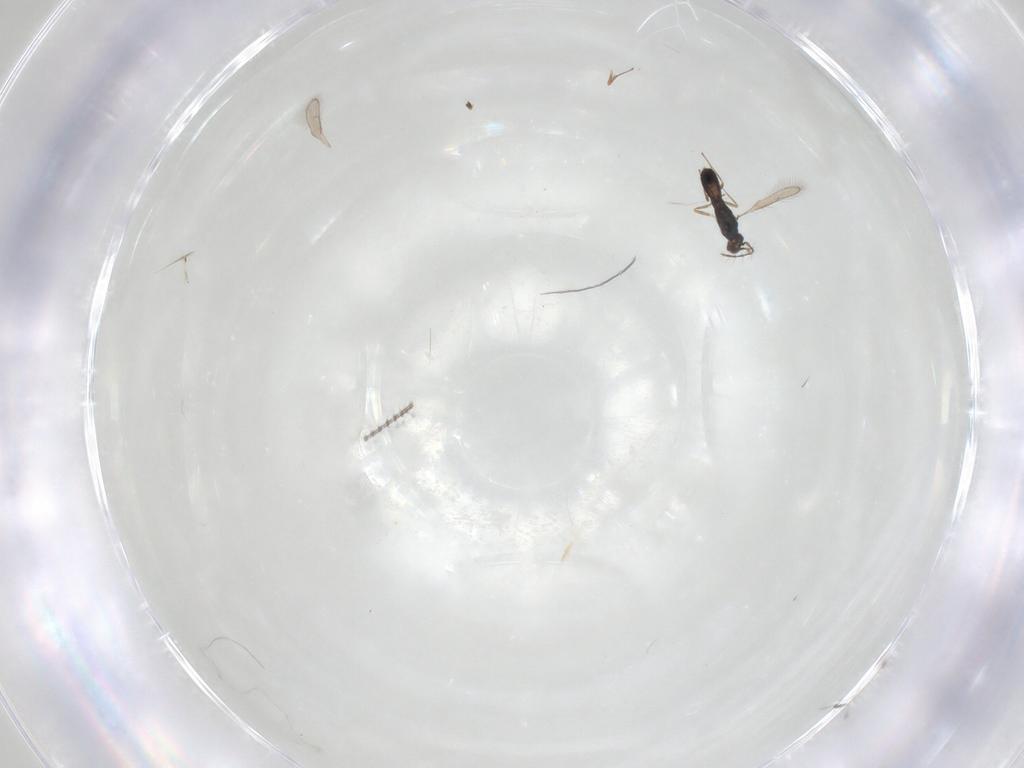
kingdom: Animalia
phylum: Arthropoda
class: Insecta
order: Hymenoptera
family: Pteromalidae
